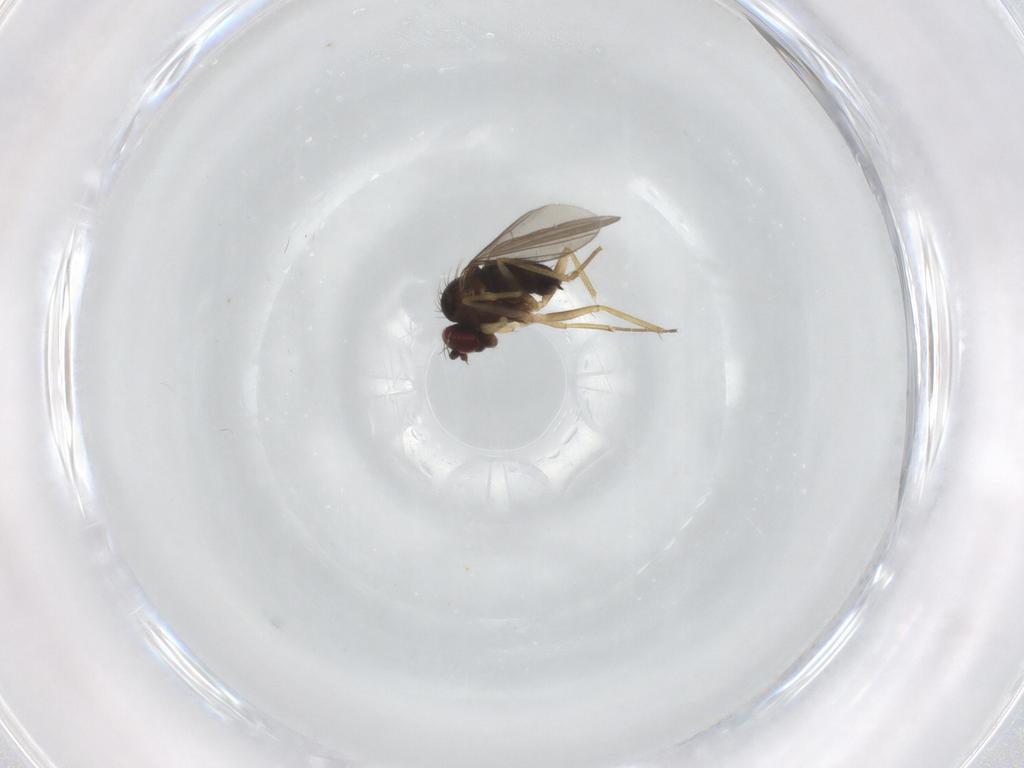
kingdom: Animalia
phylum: Arthropoda
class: Insecta
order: Diptera
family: Dolichopodidae
